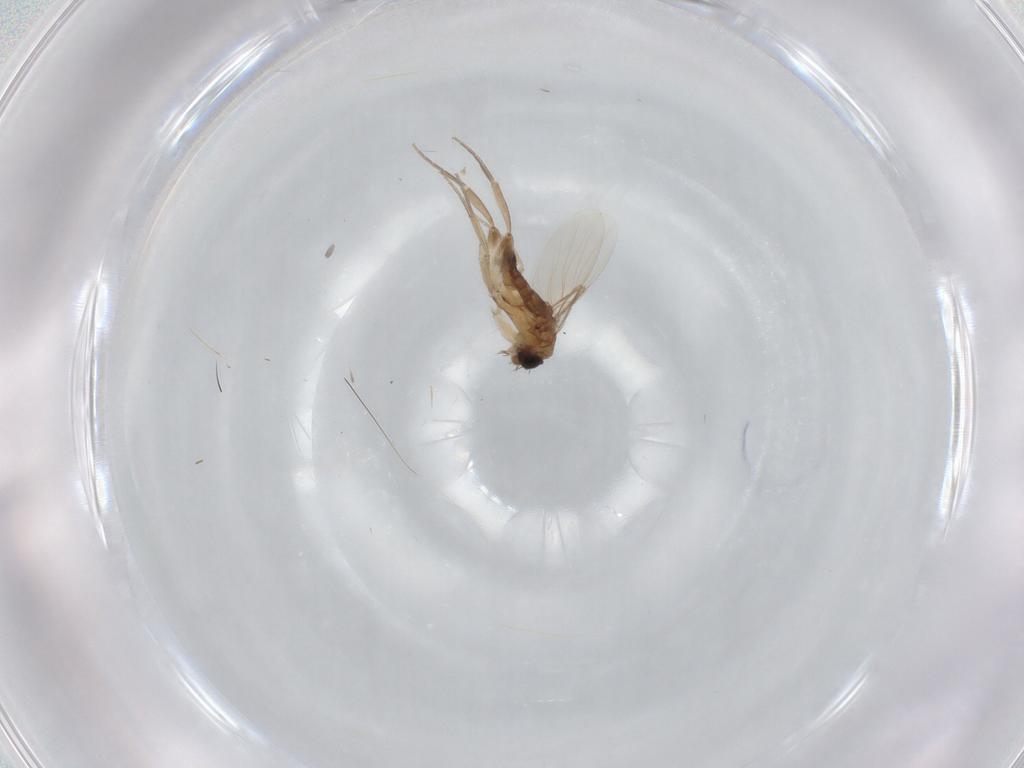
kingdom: Animalia
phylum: Arthropoda
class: Insecta
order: Diptera
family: Phoridae
